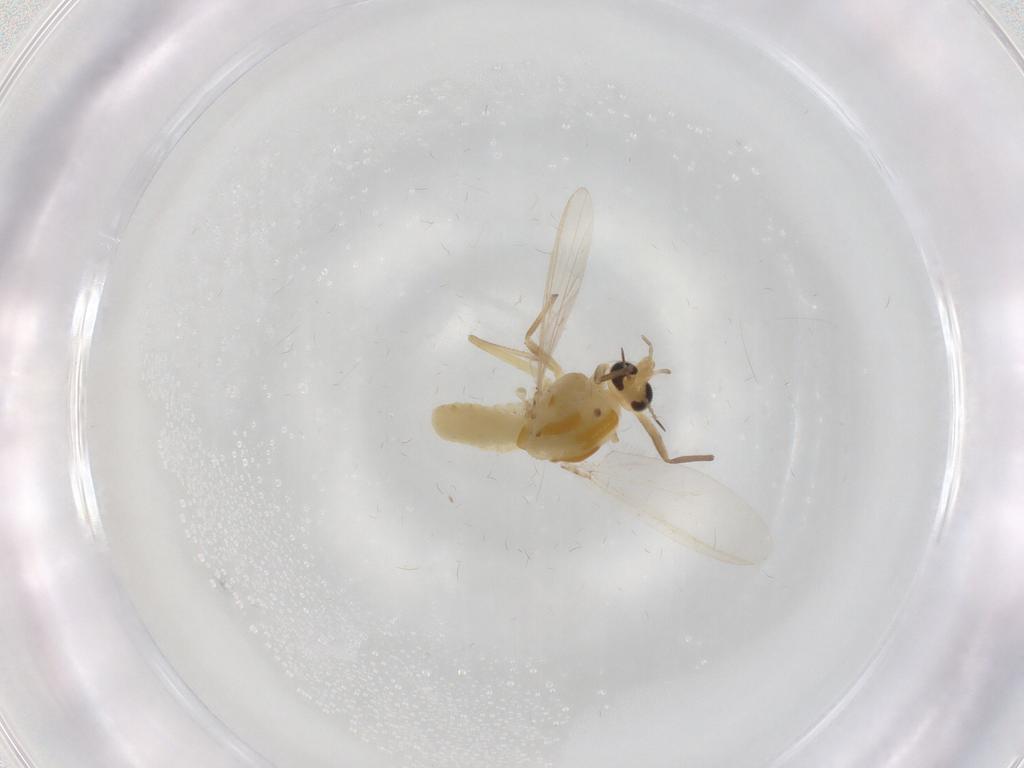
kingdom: Animalia
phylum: Arthropoda
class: Insecta
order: Diptera
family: Chironomidae
